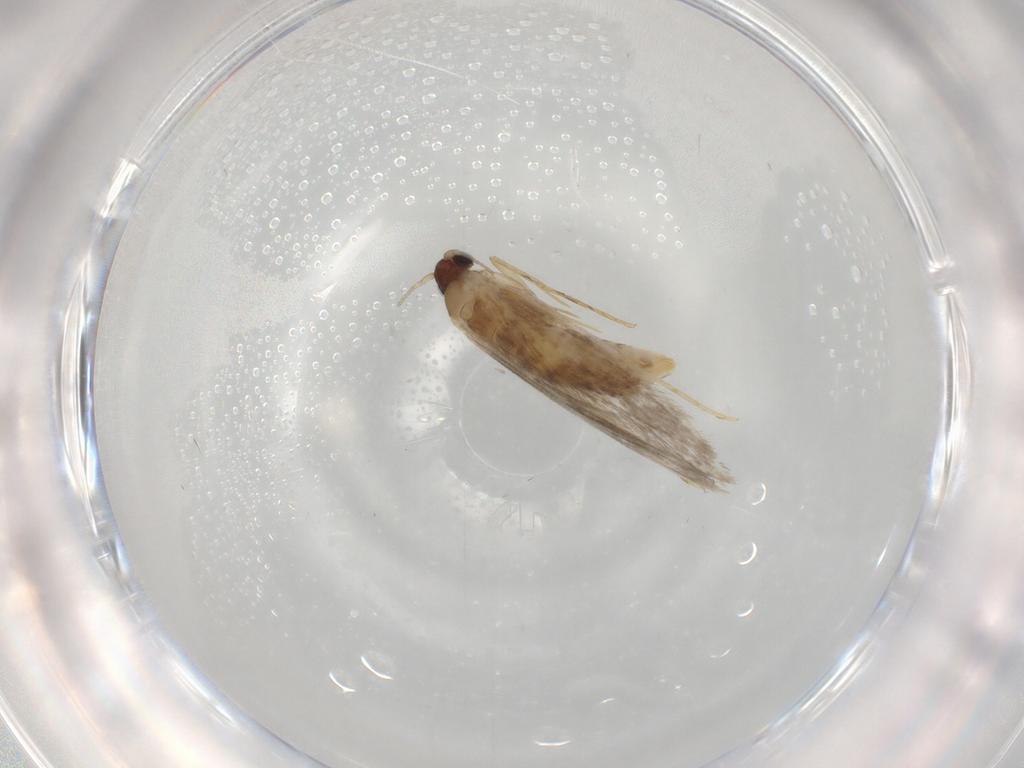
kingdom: Animalia
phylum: Arthropoda
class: Insecta
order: Lepidoptera
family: Tineidae
